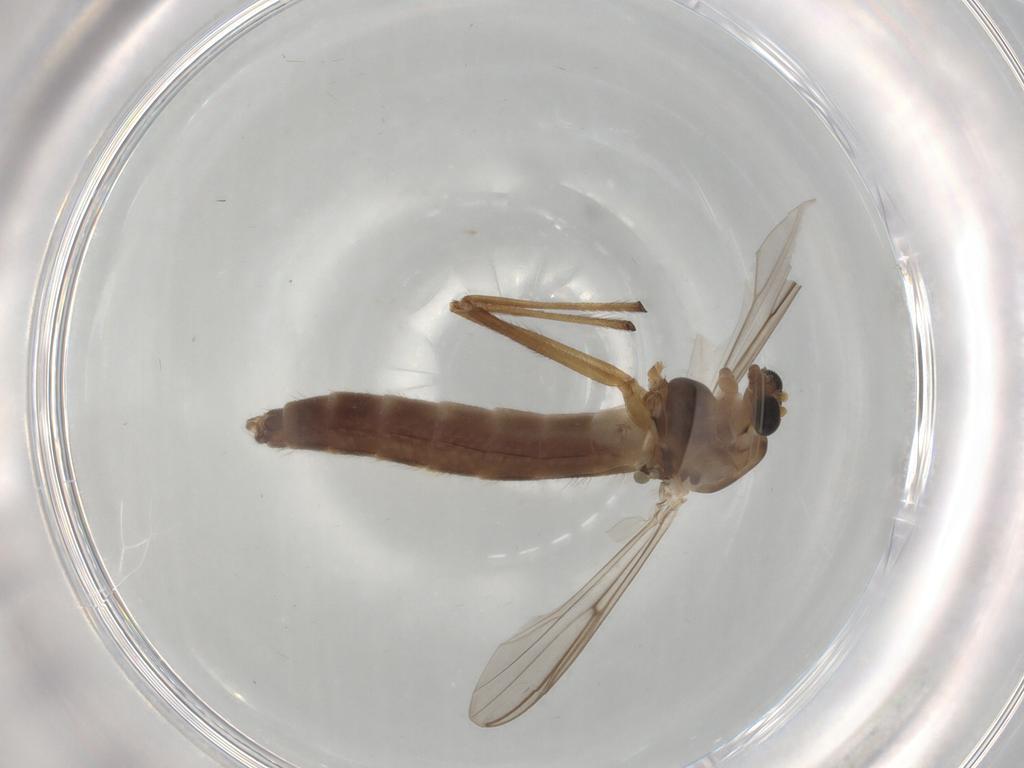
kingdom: Animalia
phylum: Arthropoda
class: Insecta
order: Diptera
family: Chironomidae
